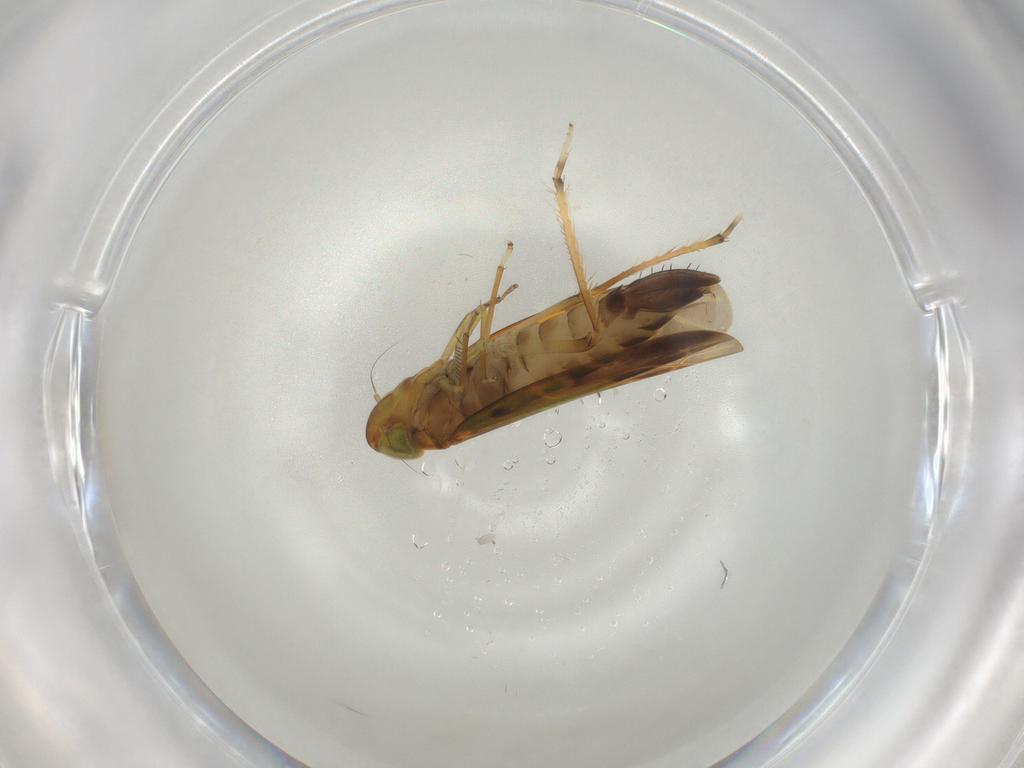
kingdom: Animalia
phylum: Arthropoda
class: Insecta
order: Hemiptera
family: Cicadellidae
